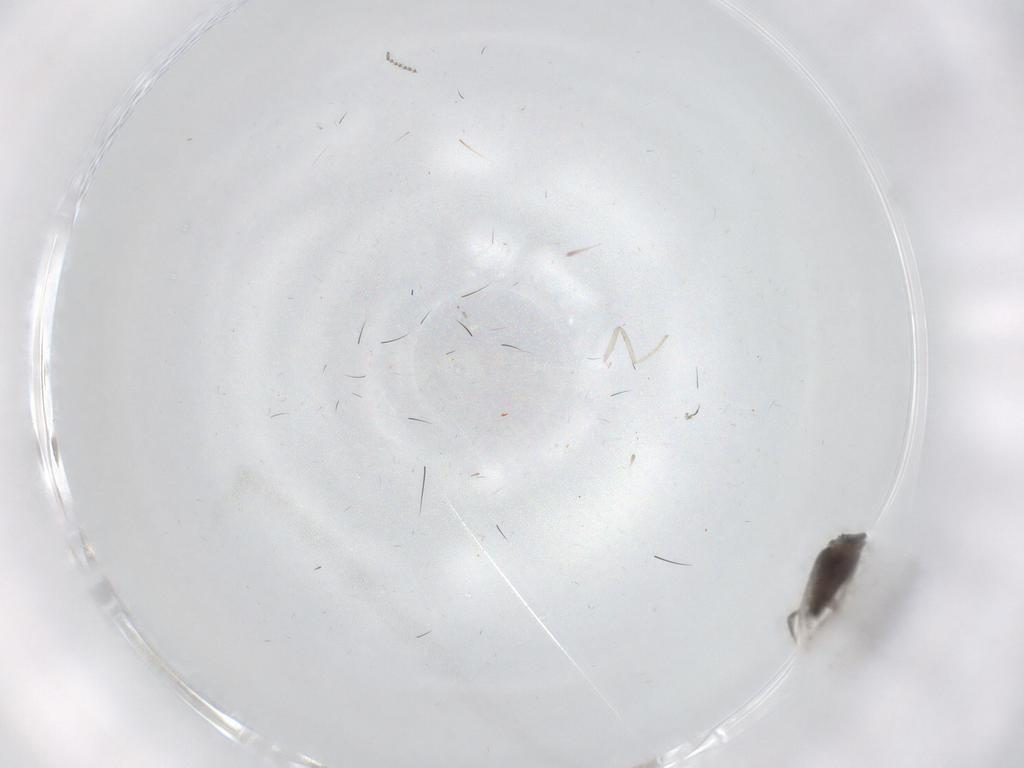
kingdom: Animalia
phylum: Arthropoda
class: Insecta
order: Diptera
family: Phoridae
